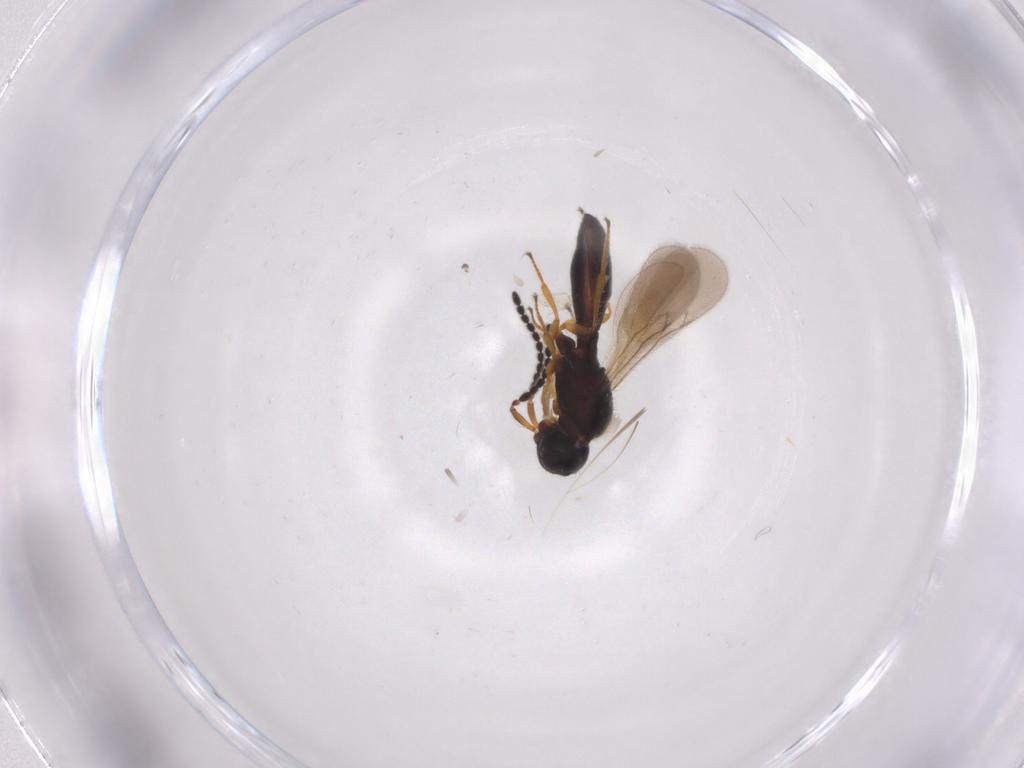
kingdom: Animalia
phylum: Arthropoda
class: Insecta
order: Hymenoptera
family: Scelionidae
